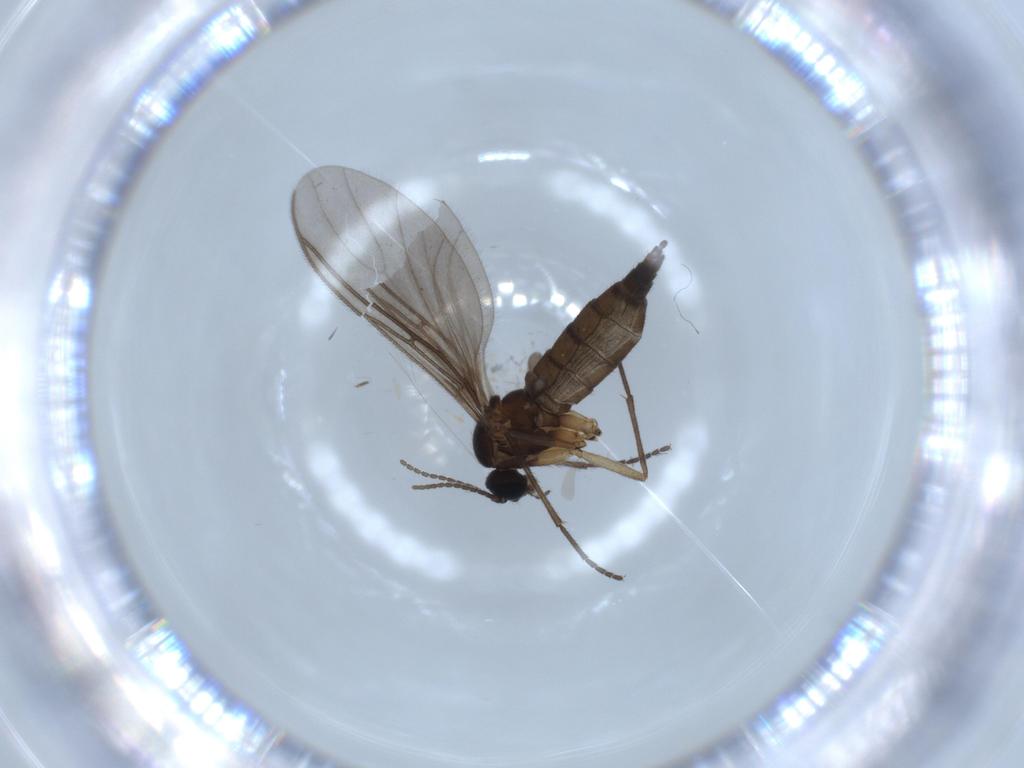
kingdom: Animalia
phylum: Arthropoda
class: Insecta
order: Diptera
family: Sciaridae
